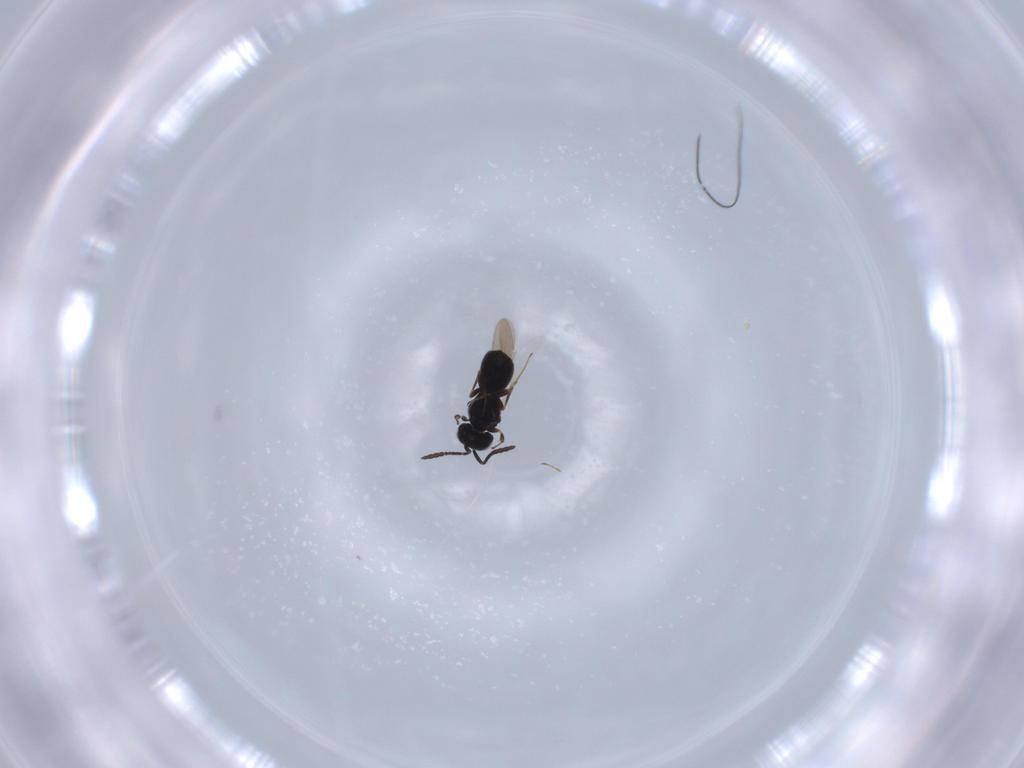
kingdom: Animalia
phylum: Arthropoda
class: Insecta
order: Hymenoptera
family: Scelionidae
